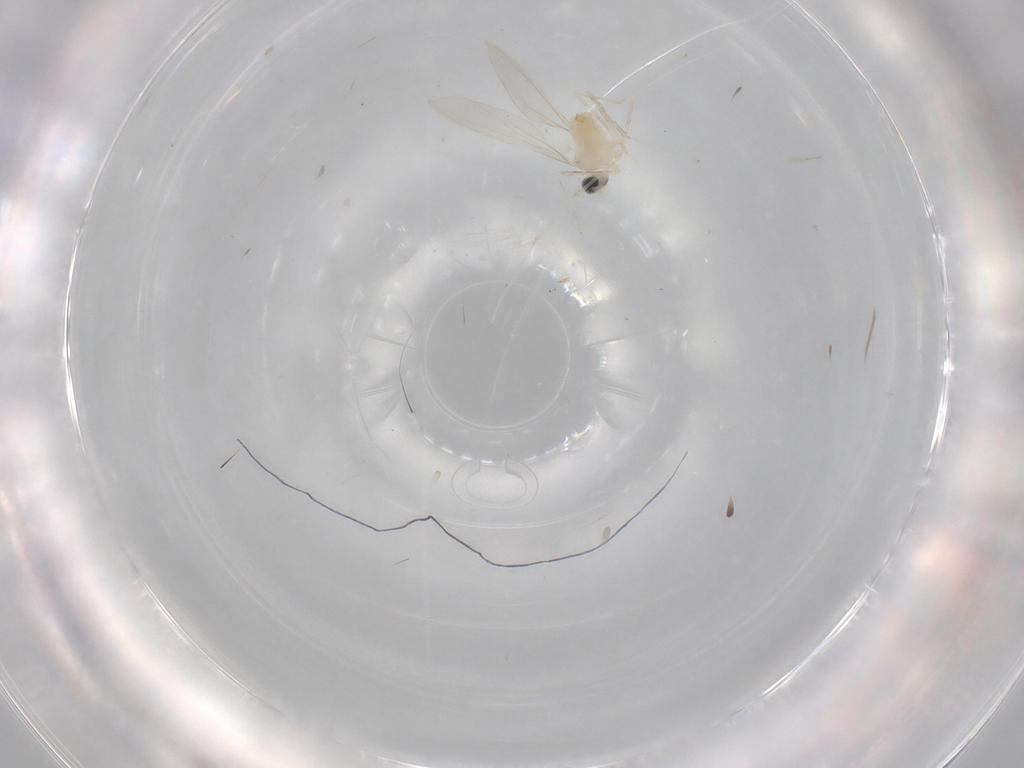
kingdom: Animalia
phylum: Arthropoda
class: Insecta
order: Diptera
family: Cecidomyiidae
